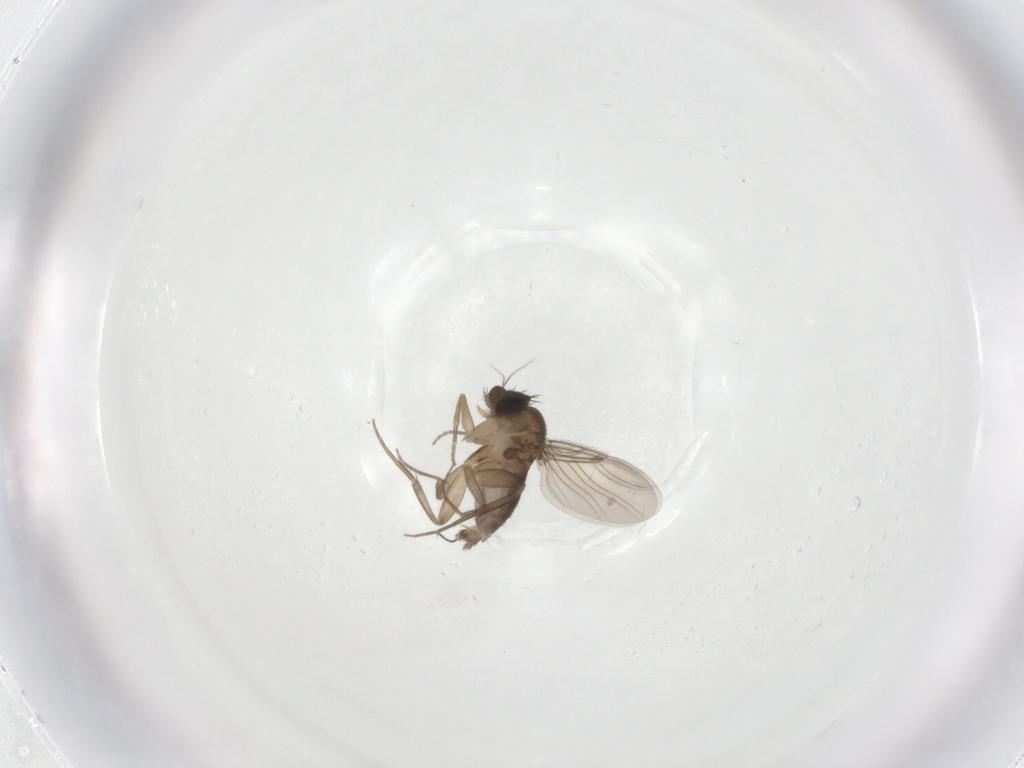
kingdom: Animalia
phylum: Arthropoda
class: Insecta
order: Diptera
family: Phoridae
